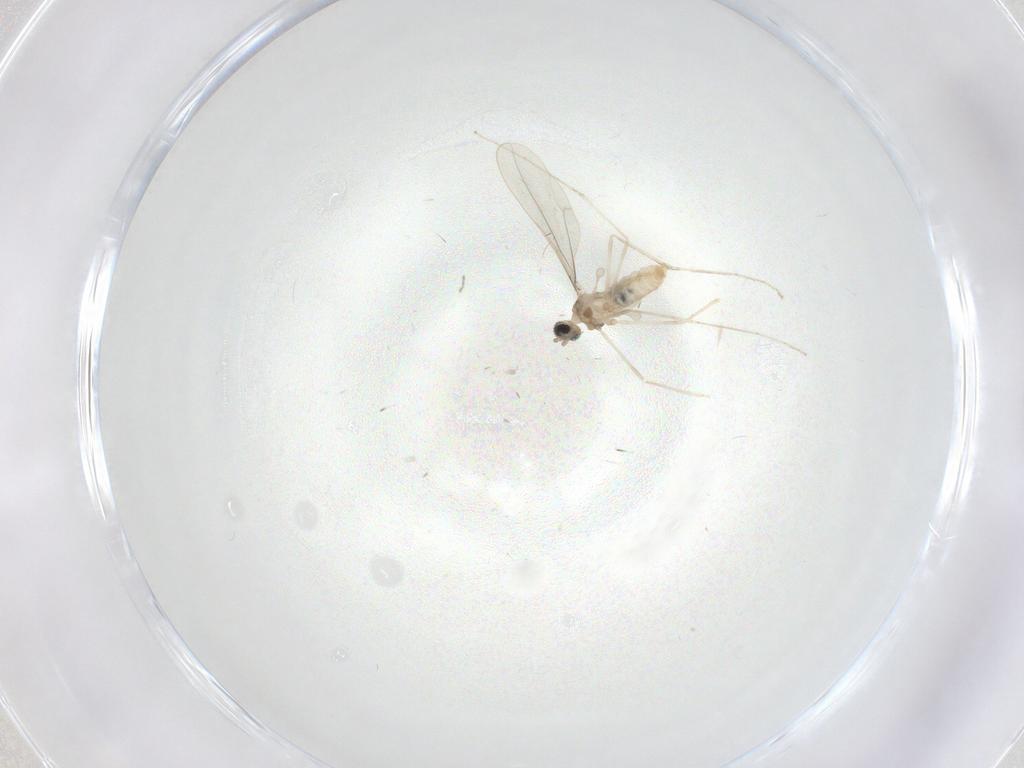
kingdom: Animalia
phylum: Arthropoda
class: Insecta
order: Diptera
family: Cecidomyiidae
